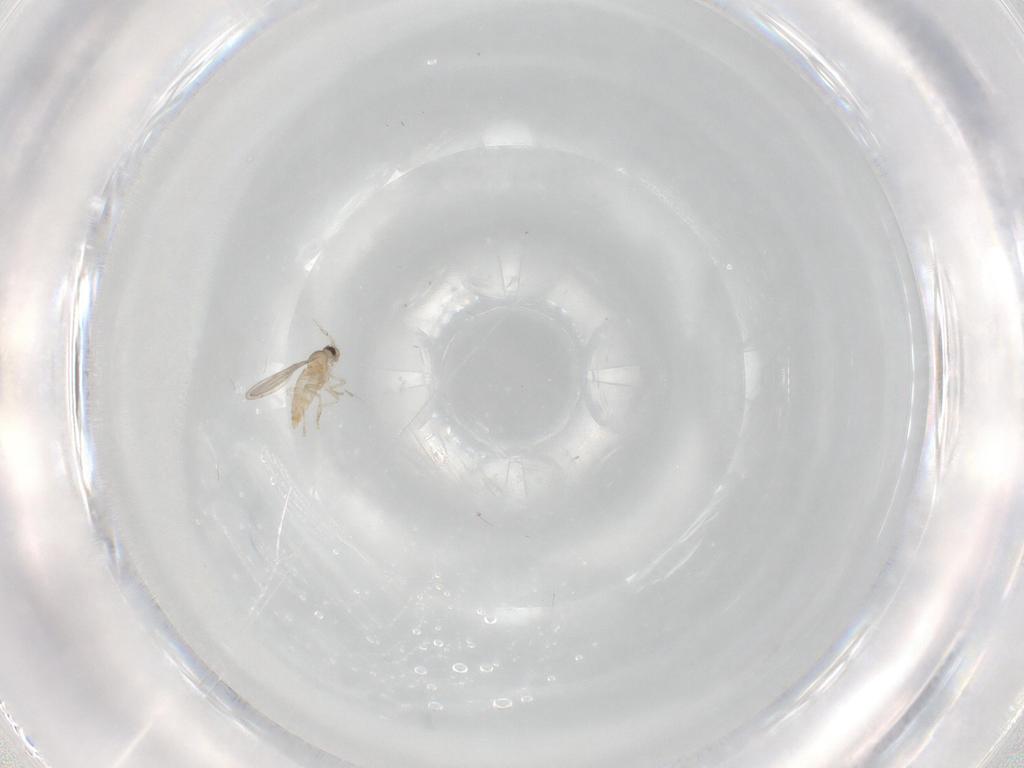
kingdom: Animalia
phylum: Arthropoda
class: Insecta
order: Diptera
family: Cecidomyiidae
